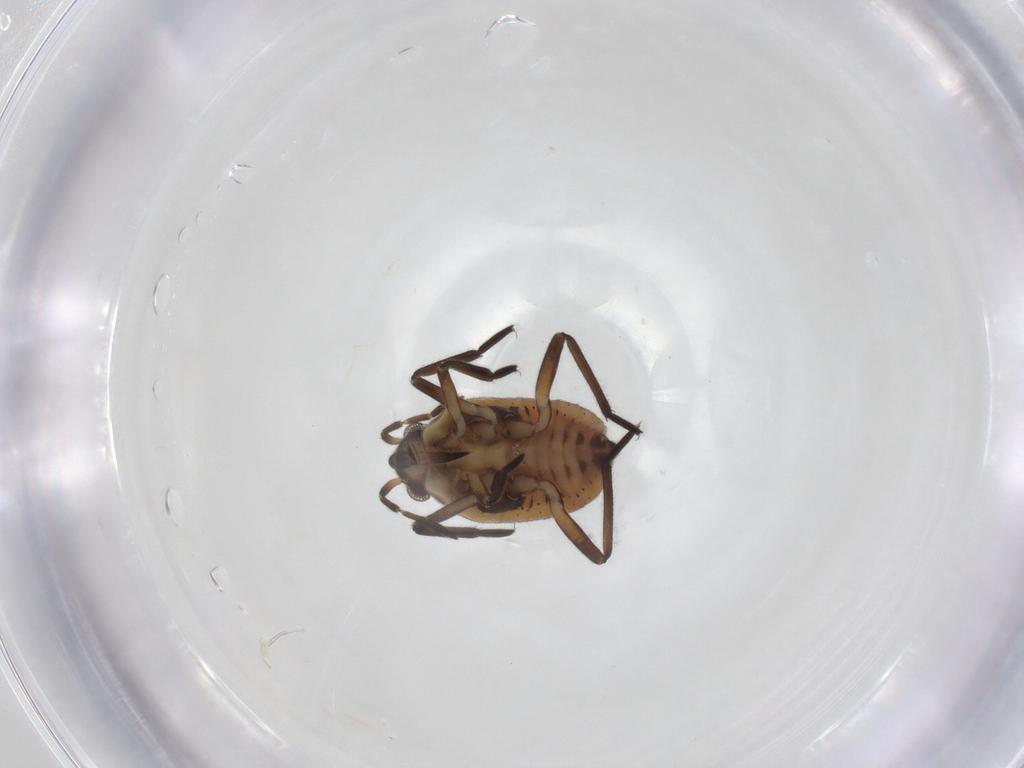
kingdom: Animalia
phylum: Arthropoda
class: Insecta
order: Hemiptera
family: Veliidae
